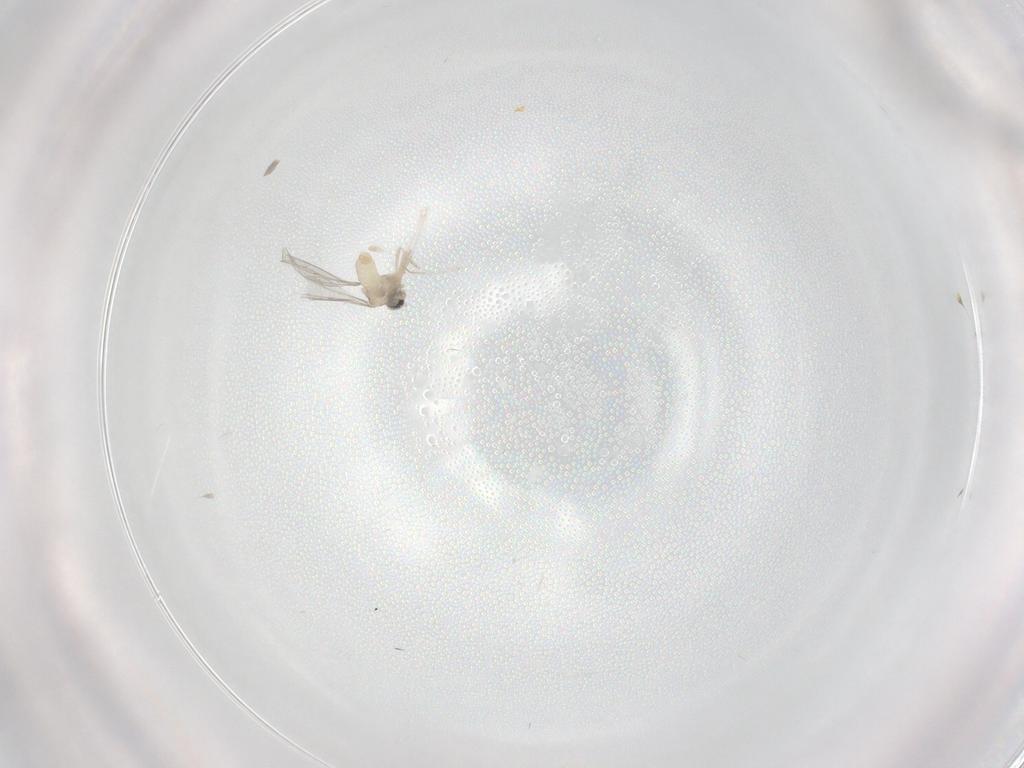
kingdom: Animalia
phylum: Arthropoda
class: Insecta
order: Diptera
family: Cecidomyiidae
